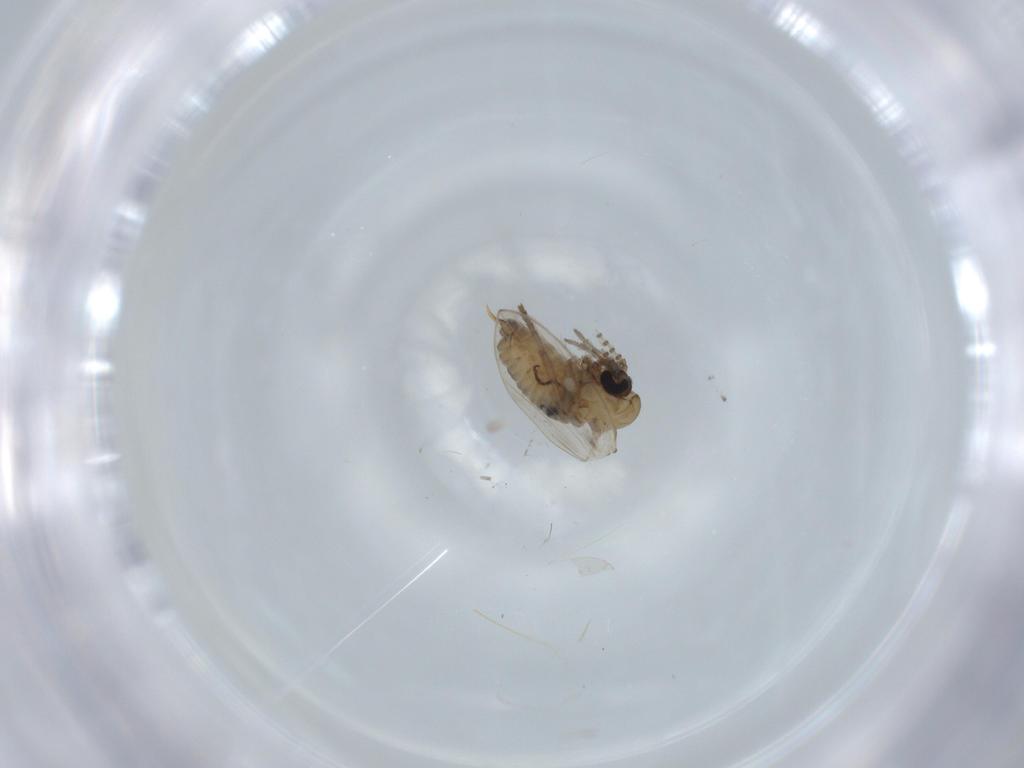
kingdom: Animalia
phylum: Arthropoda
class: Insecta
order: Diptera
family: Psychodidae
